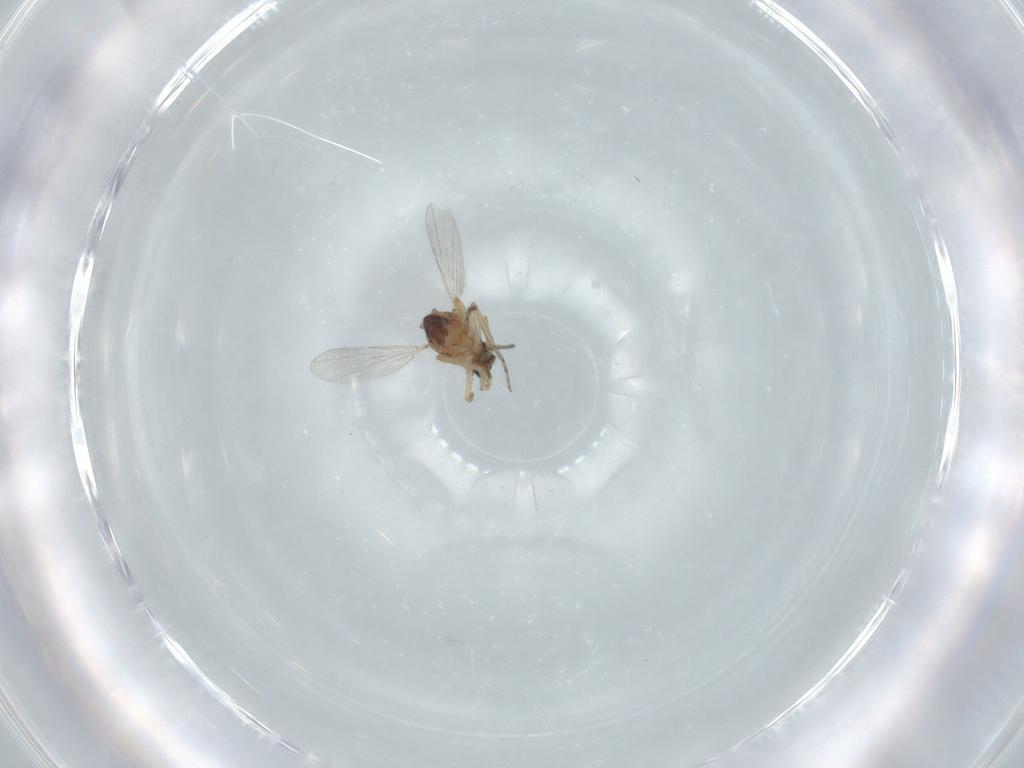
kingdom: Animalia
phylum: Arthropoda
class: Insecta
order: Diptera
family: Ceratopogonidae
